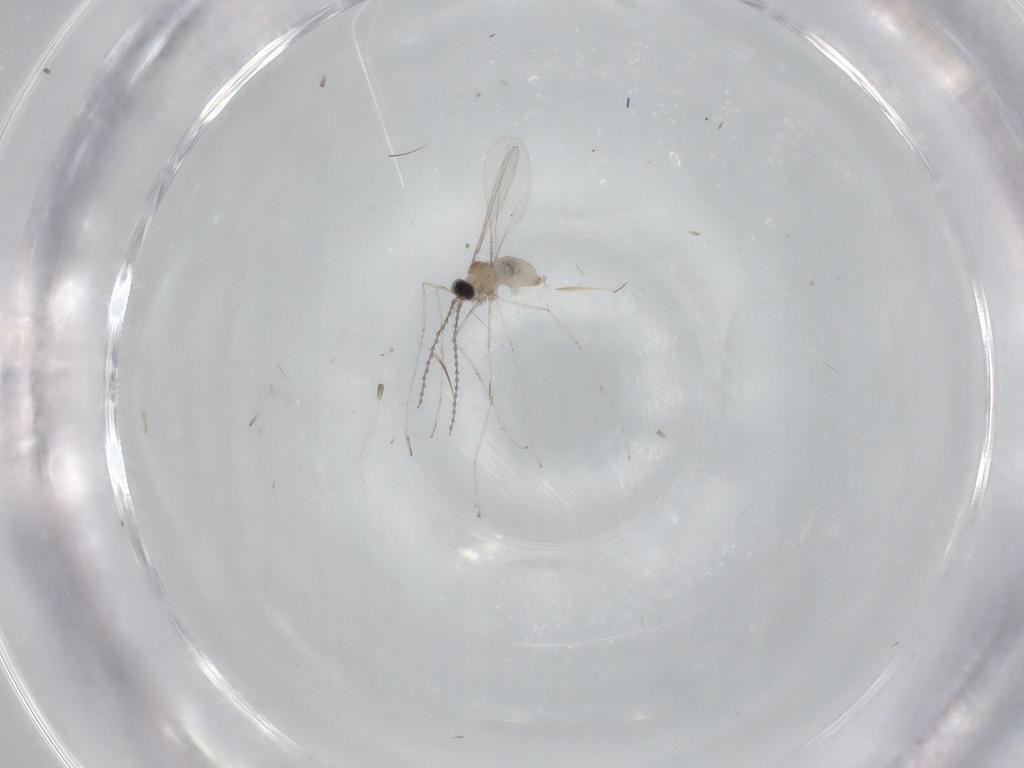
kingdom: Animalia
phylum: Arthropoda
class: Insecta
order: Diptera
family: Cecidomyiidae
